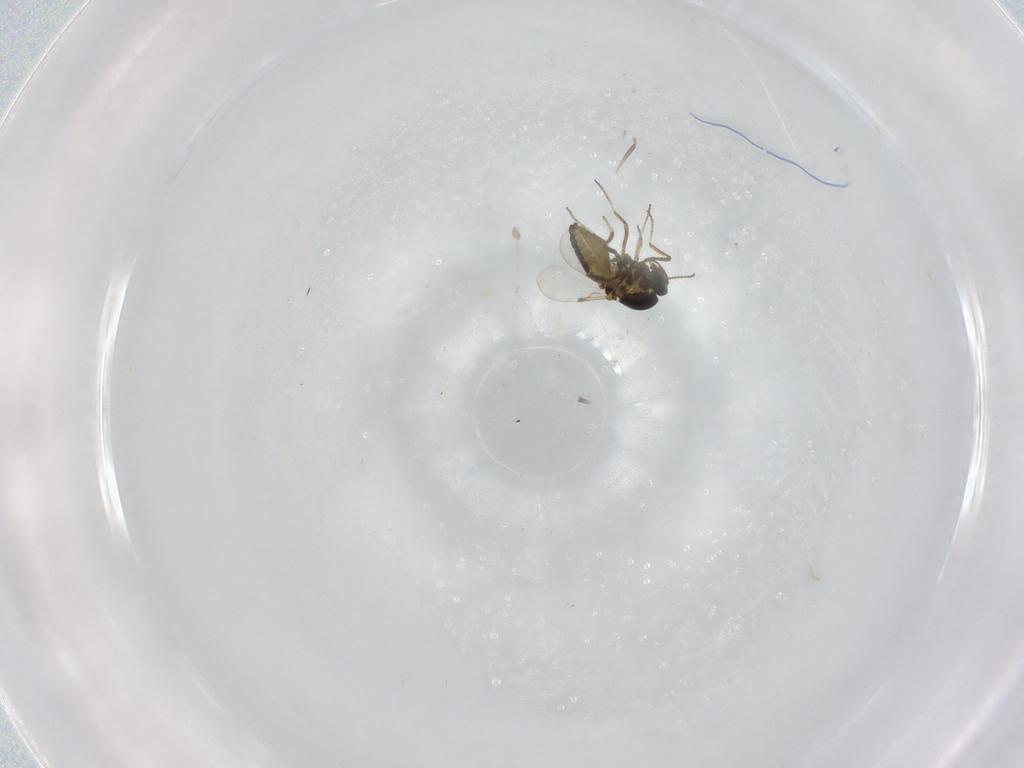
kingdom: Animalia
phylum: Arthropoda
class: Insecta
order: Diptera
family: Ceratopogonidae
